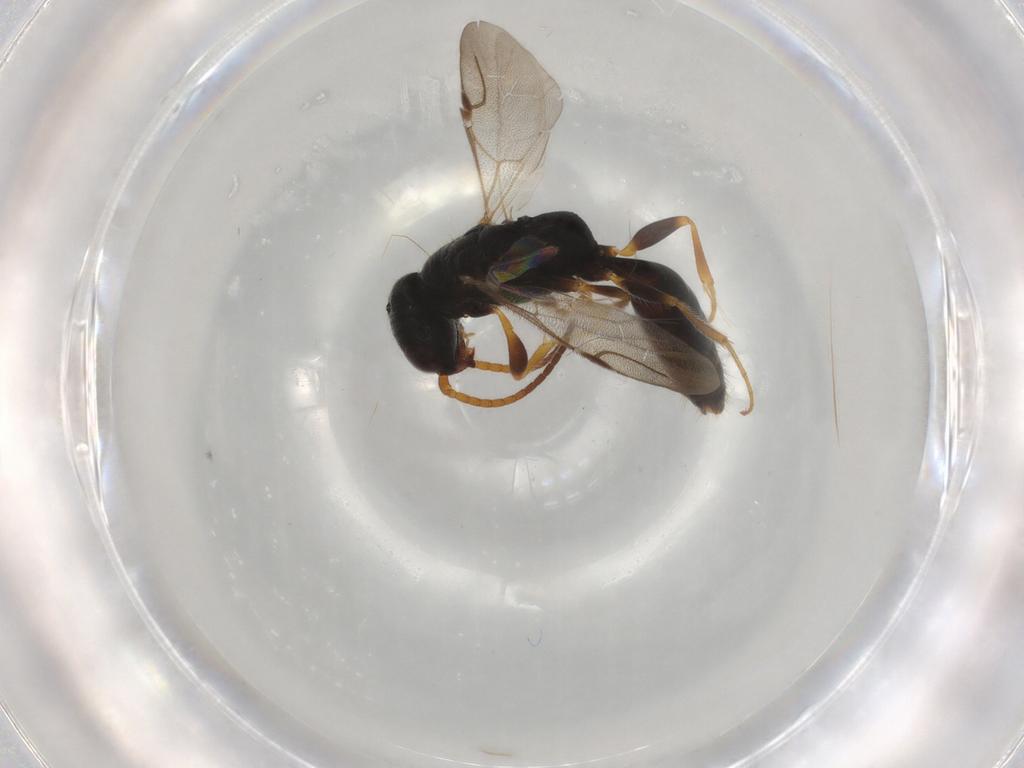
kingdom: Animalia
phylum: Arthropoda
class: Insecta
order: Hymenoptera
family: Bethylidae
